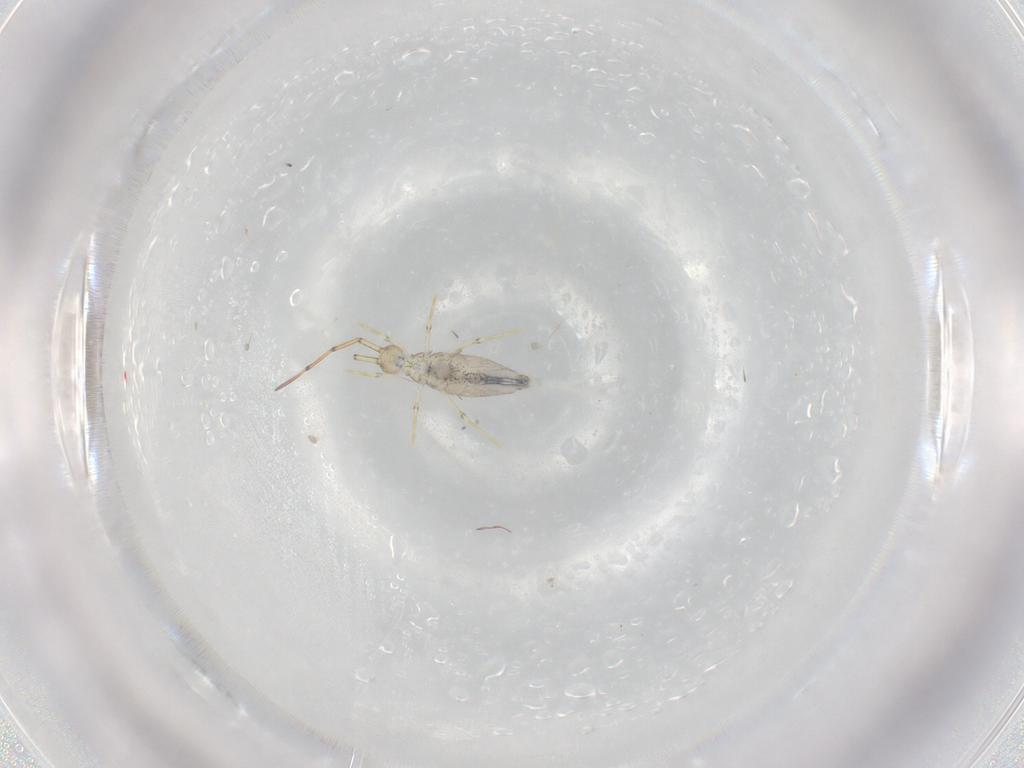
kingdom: Animalia
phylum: Arthropoda
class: Collembola
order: Entomobryomorpha
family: Paronellidae
